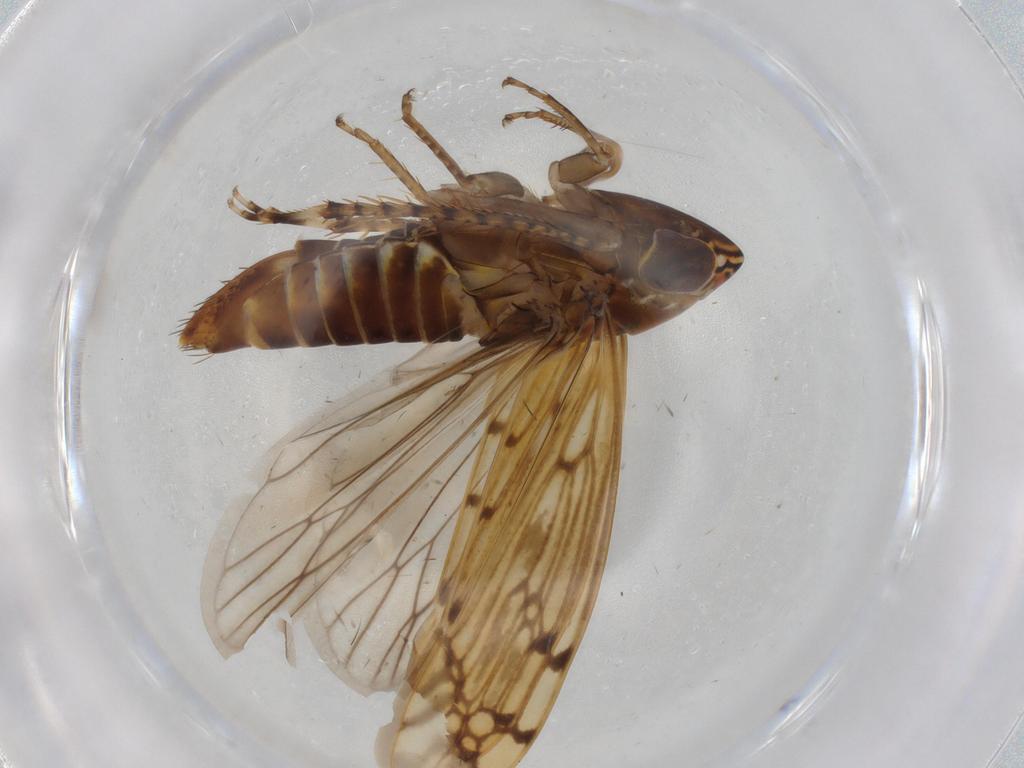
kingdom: Animalia
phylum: Arthropoda
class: Insecta
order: Hemiptera
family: Cicadellidae
